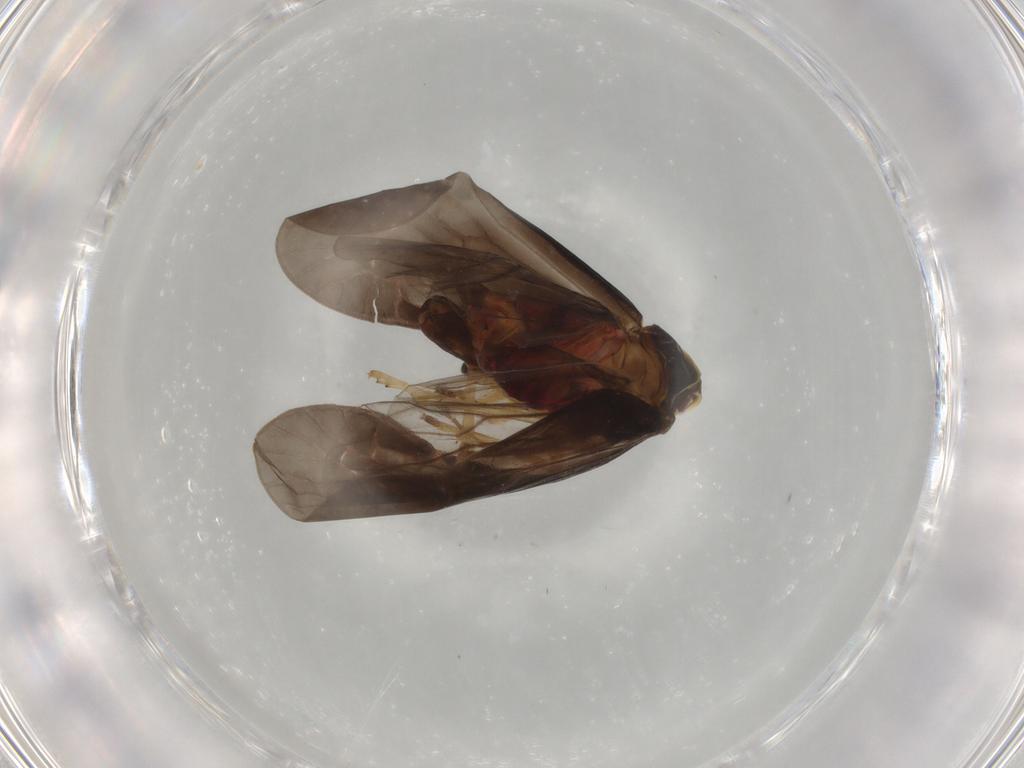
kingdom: Animalia
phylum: Arthropoda
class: Insecta
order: Hemiptera
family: Derbidae
